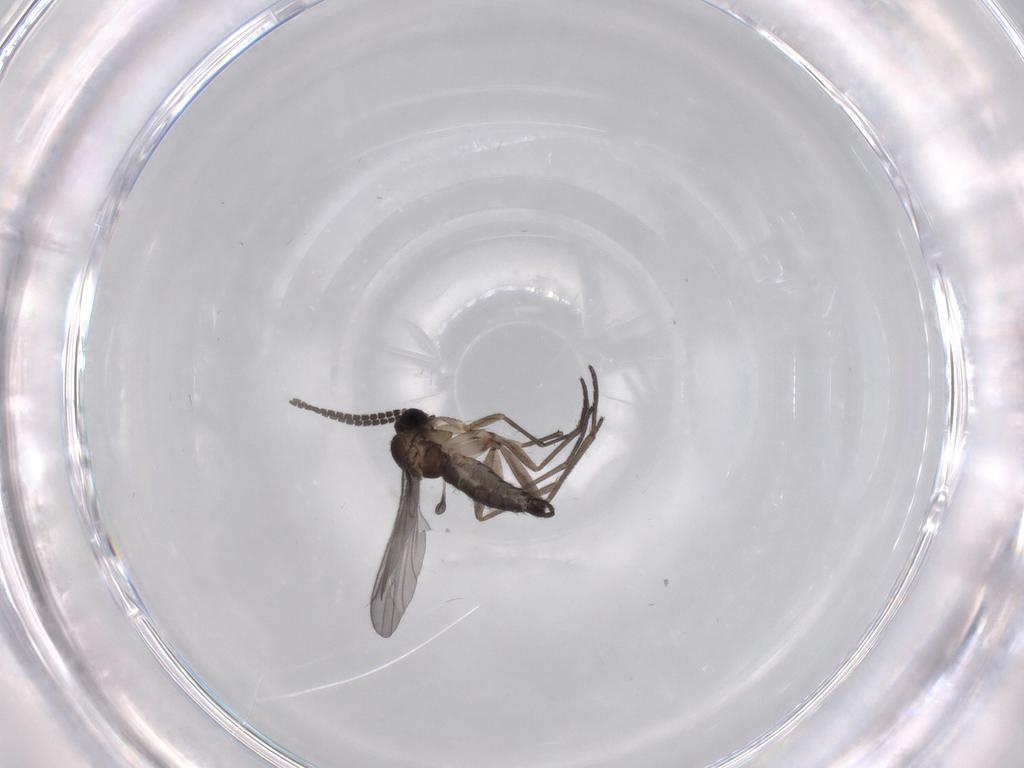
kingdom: Animalia
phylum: Arthropoda
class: Insecta
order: Diptera
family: Sciaridae
